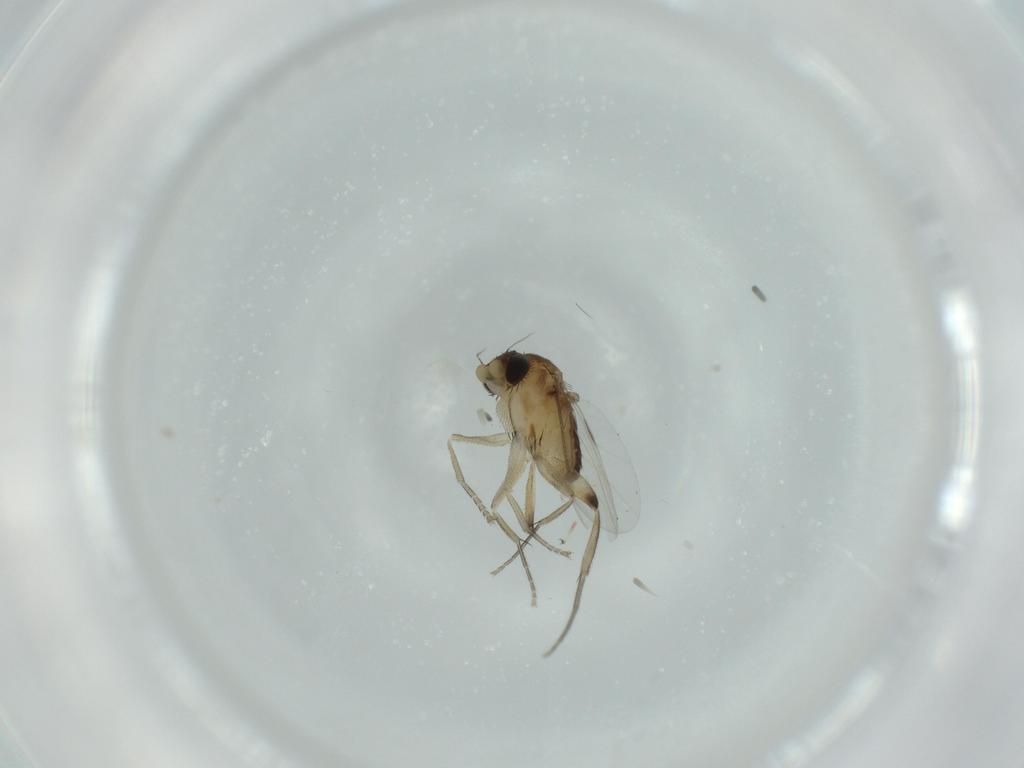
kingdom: Animalia
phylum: Arthropoda
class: Insecta
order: Diptera
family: Phoridae
